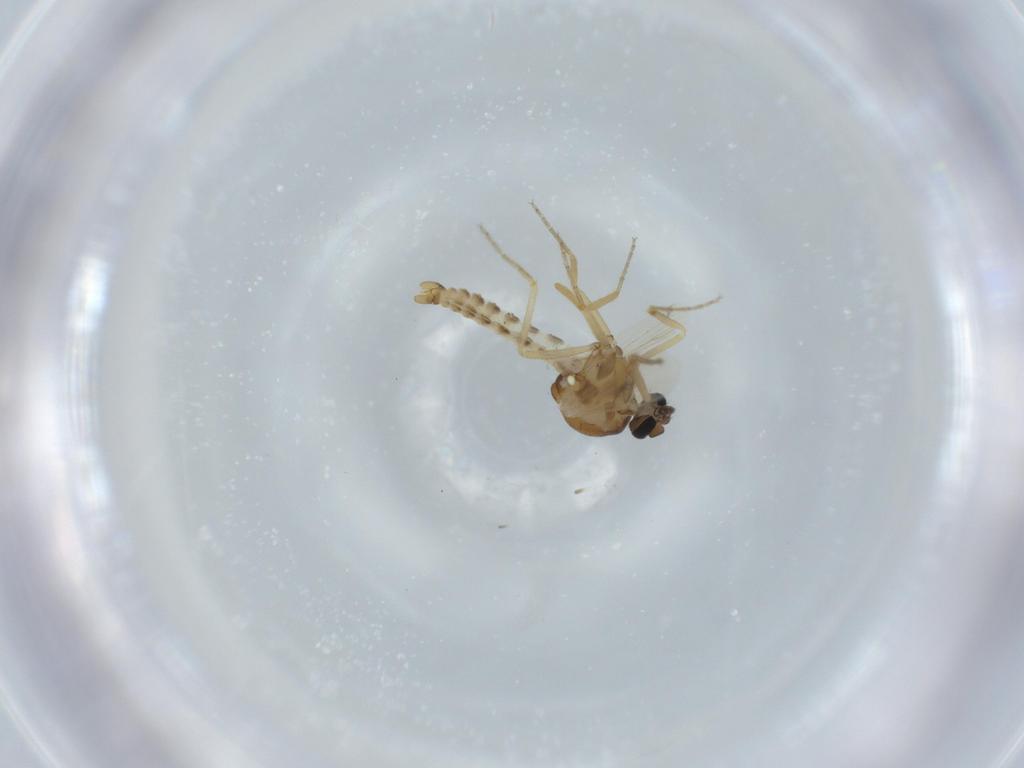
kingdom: Animalia
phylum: Arthropoda
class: Insecta
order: Diptera
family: Ceratopogonidae
